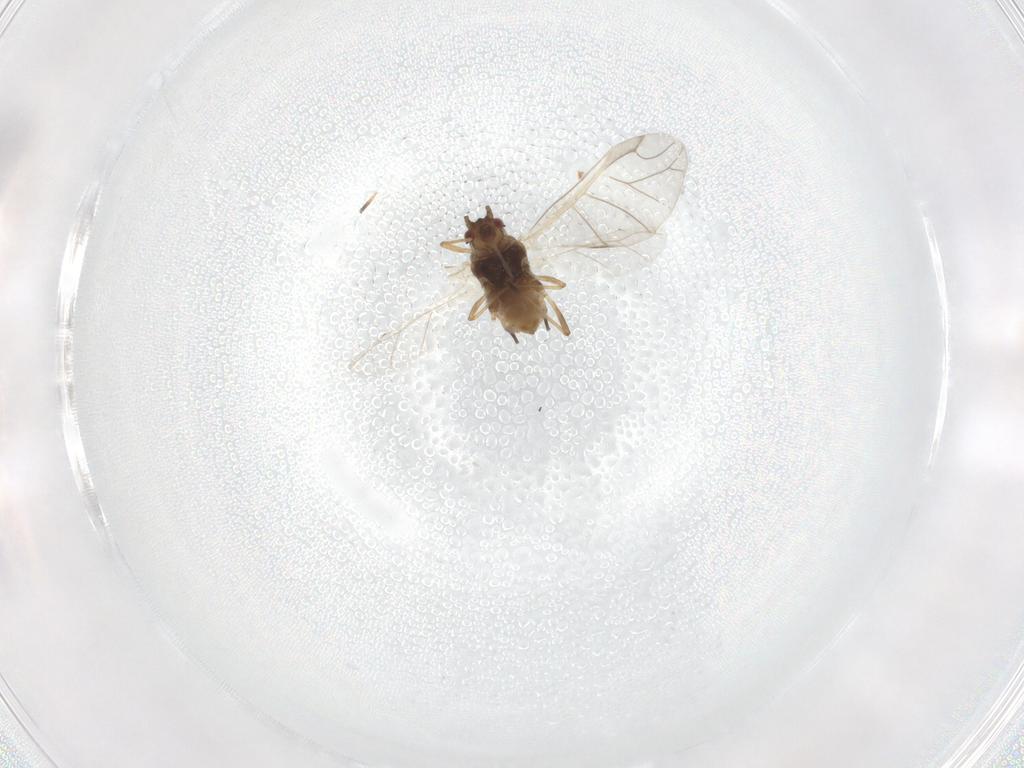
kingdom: Animalia
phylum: Arthropoda
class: Insecta
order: Hemiptera
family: Aphididae
